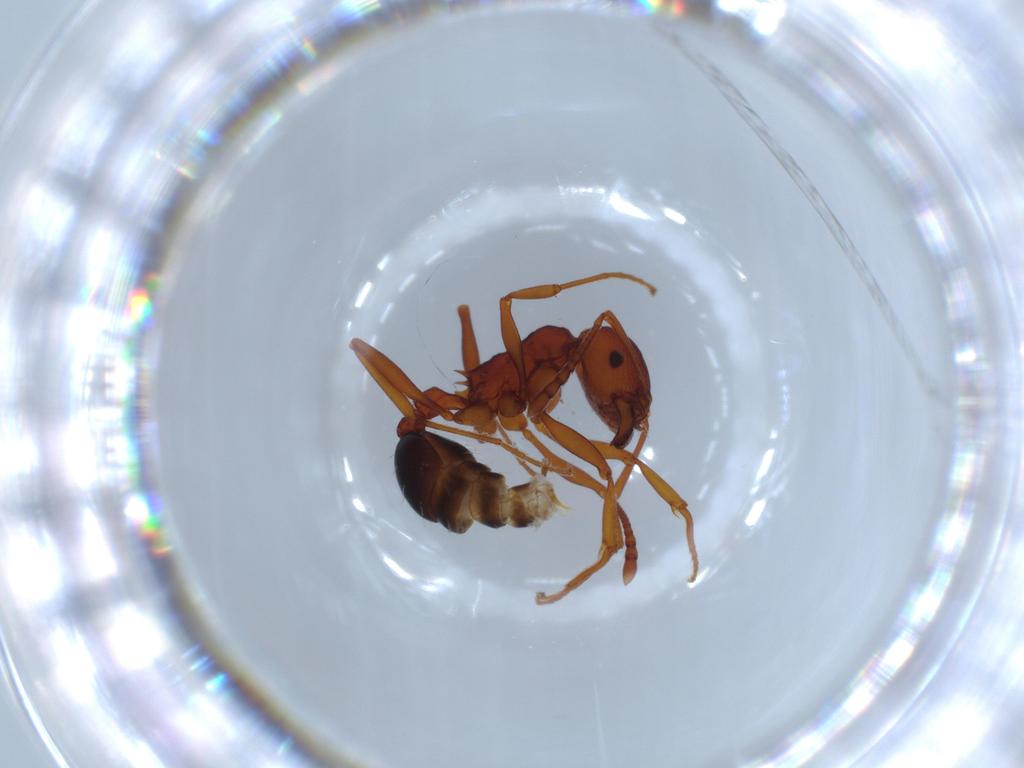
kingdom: Animalia
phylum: Arthropoda
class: Insecta
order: Hymenoptera
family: Formicidae
